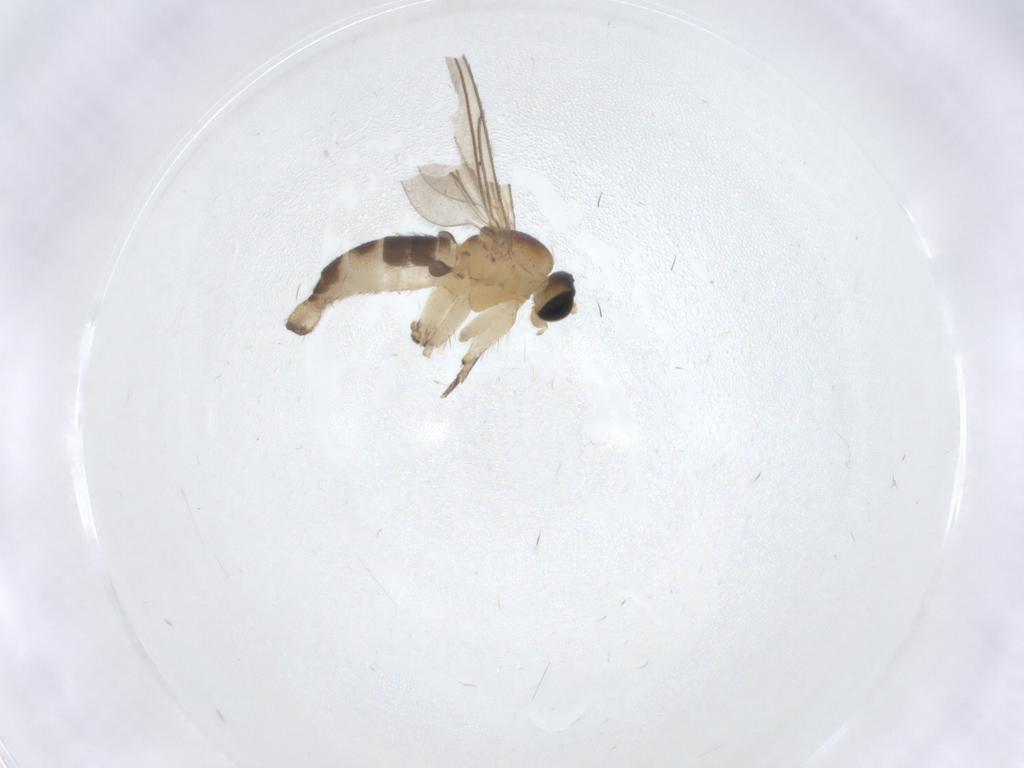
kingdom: Animalia
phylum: Arthropoda
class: Insecta
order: Diptera
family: Sciaridae
